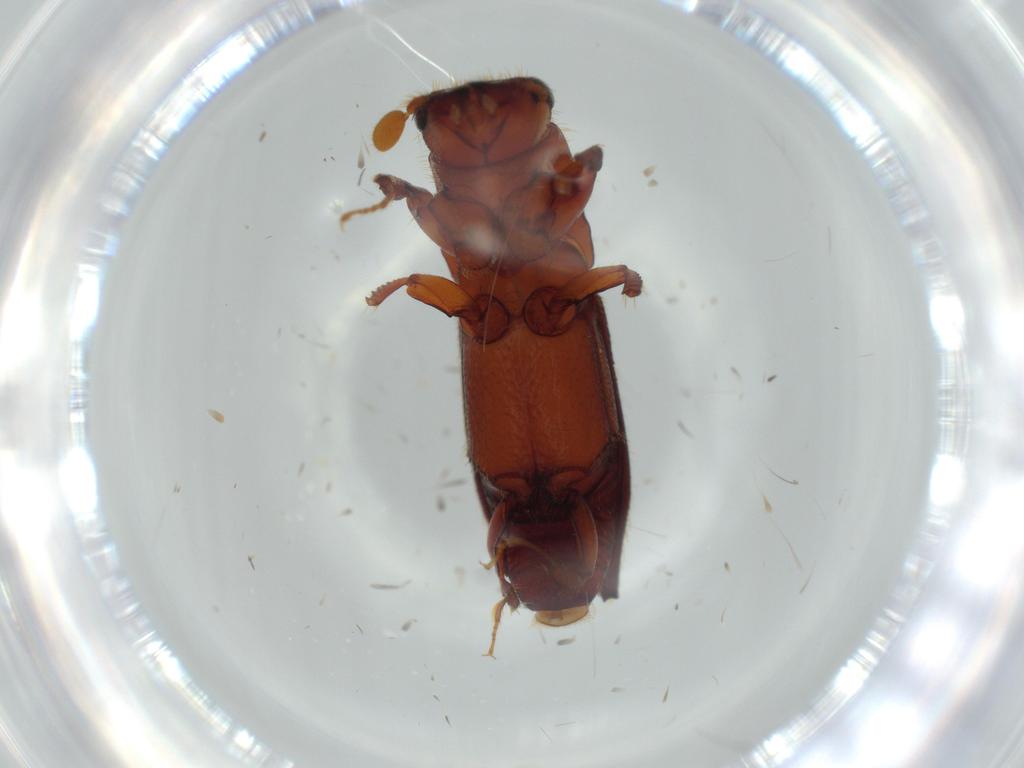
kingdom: Animalia
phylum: Arthropoda
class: Insecta
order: Coleoptera
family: Curculionidae
